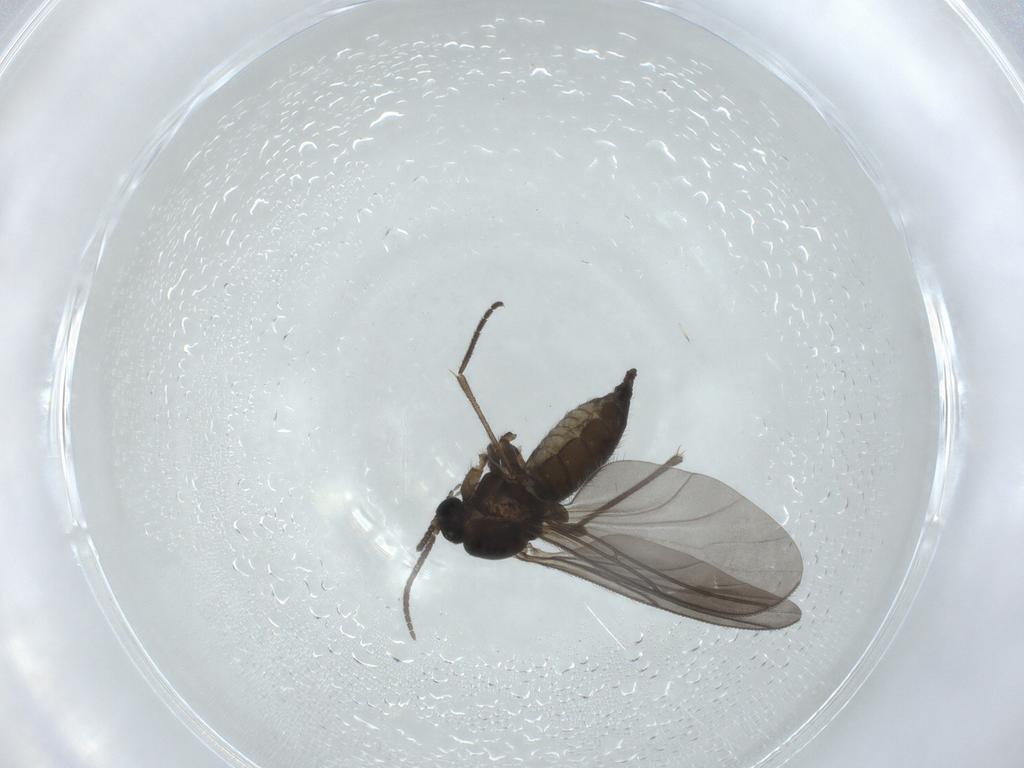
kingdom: Animalia
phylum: Arthropoda
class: Insecta
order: Diptera
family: Sciaridae
